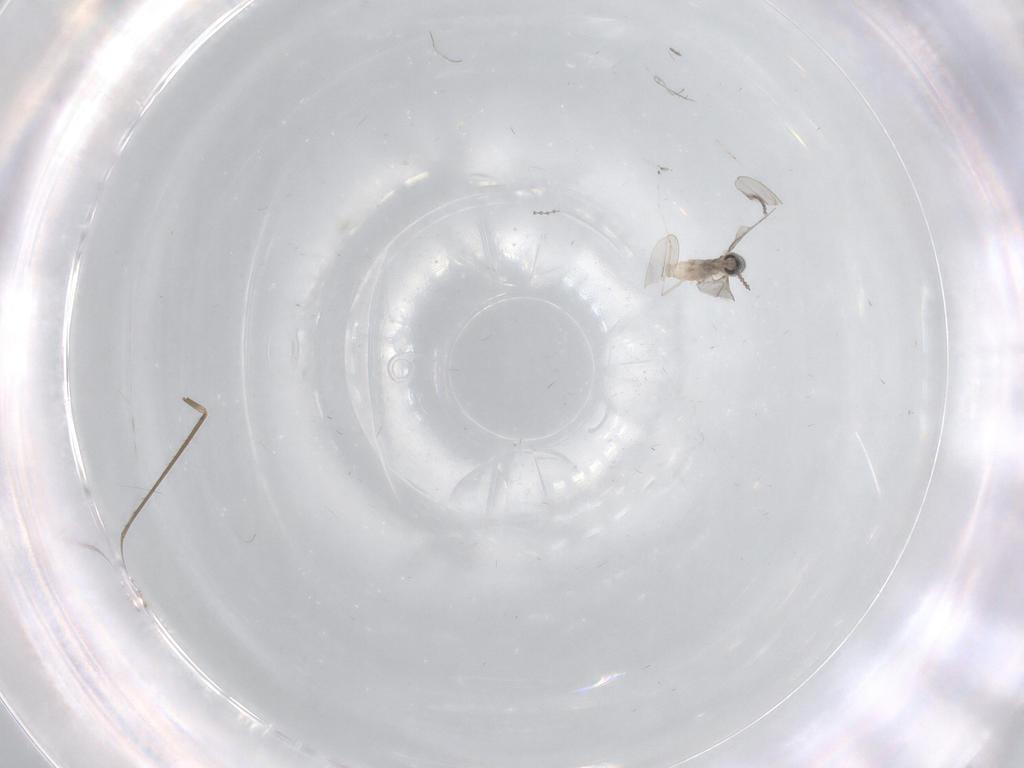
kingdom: Animalia
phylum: Arthropoda
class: Insecta
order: Diptera
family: Chironomidae
